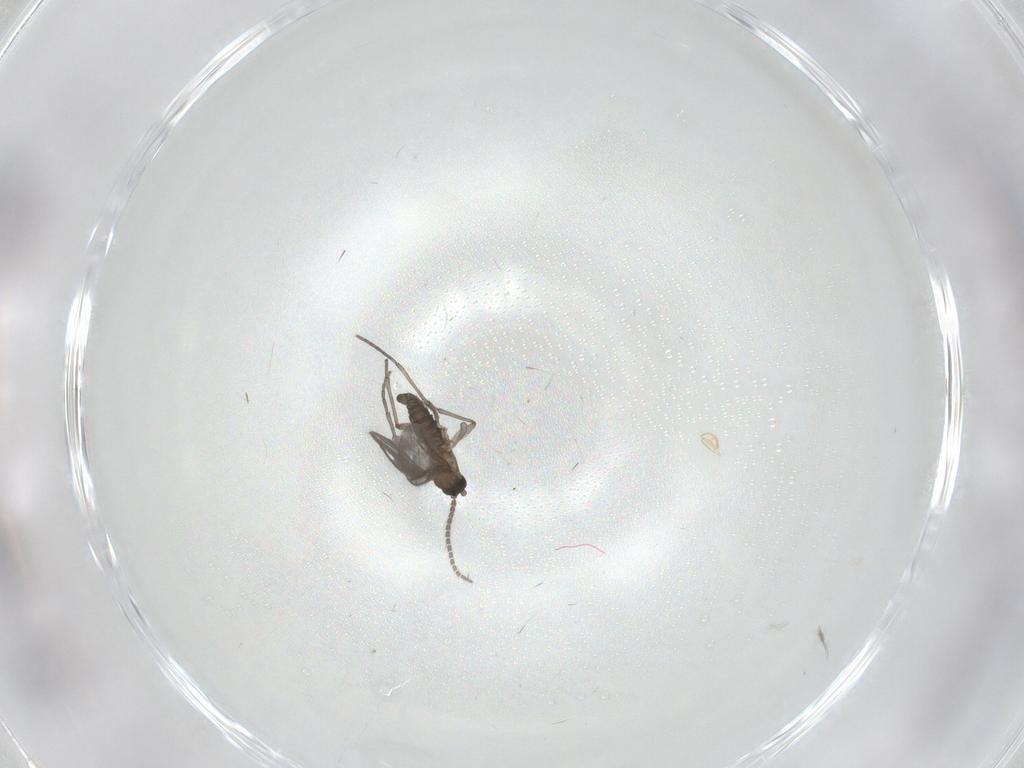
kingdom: Animalia
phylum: Arthropoda
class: Insecta
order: Diptera
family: Sciaridae
